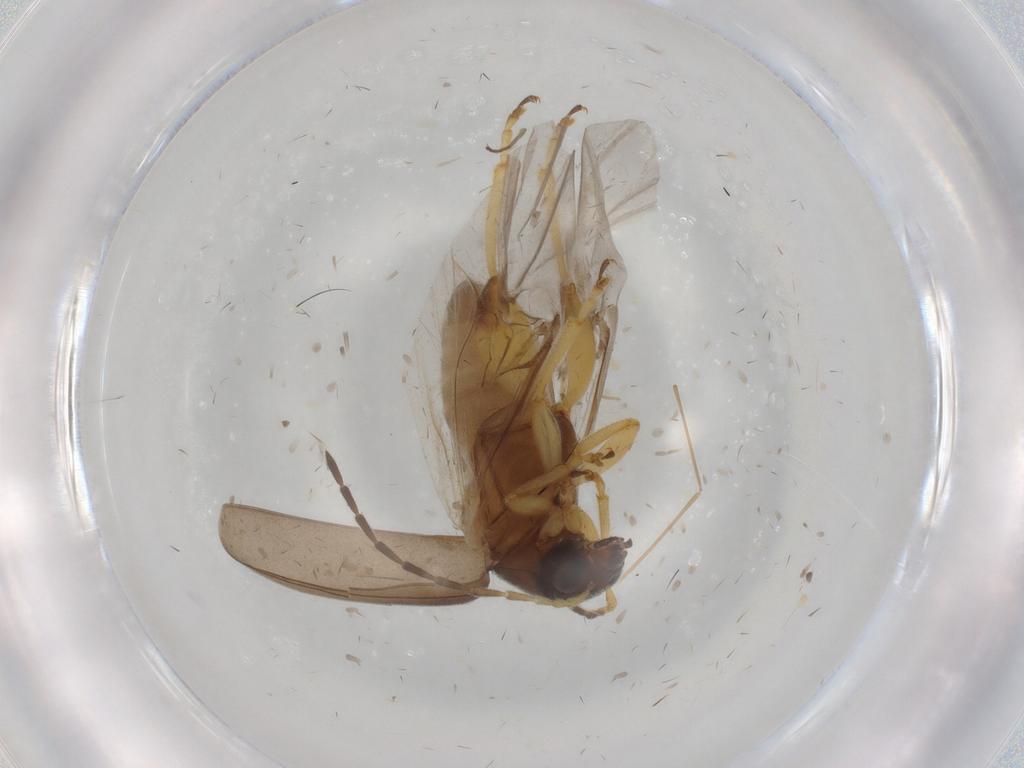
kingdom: Animalia
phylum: Arthropoda
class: Insecta
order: Coleoptera
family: Chrysomelidae
